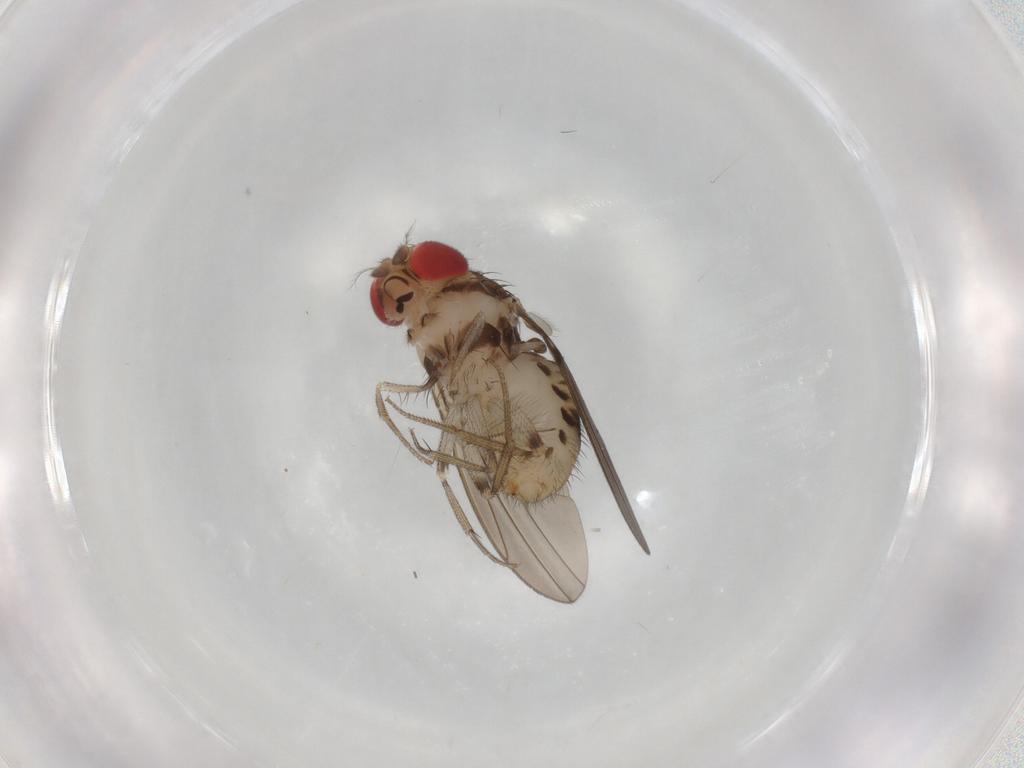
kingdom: Animalia
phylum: Arthropoda
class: Insecta
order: Diptera
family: Drosophilidae
